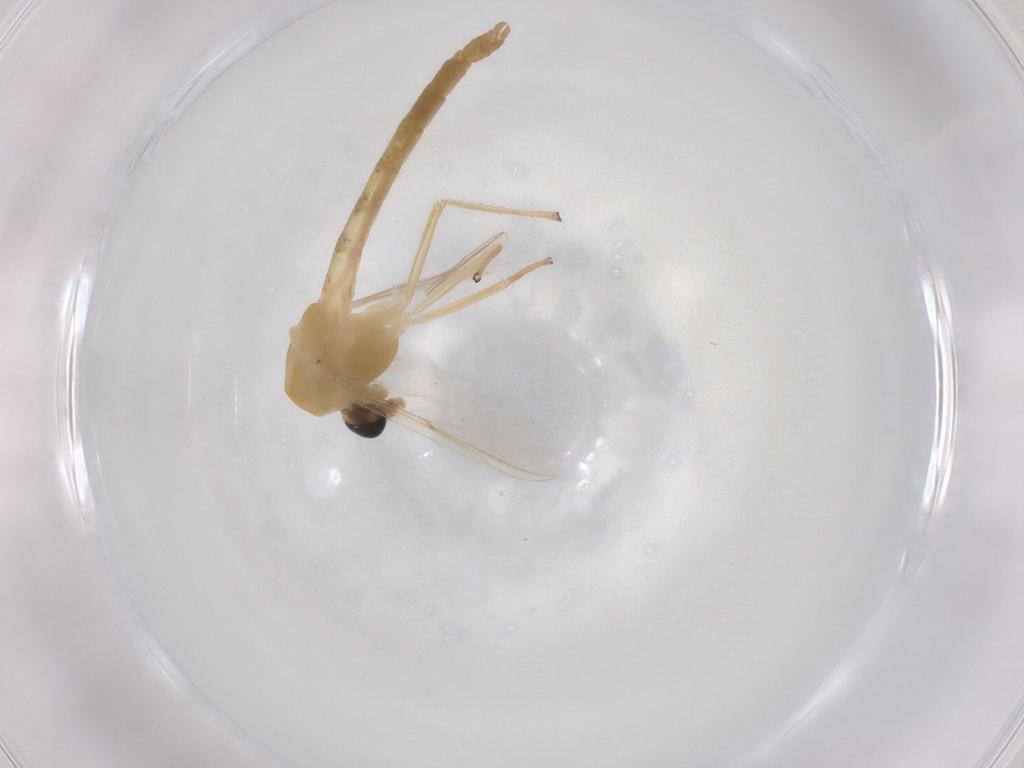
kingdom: Animalia
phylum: Arthropoda
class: Insecta
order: Diptera
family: Chironomidae
